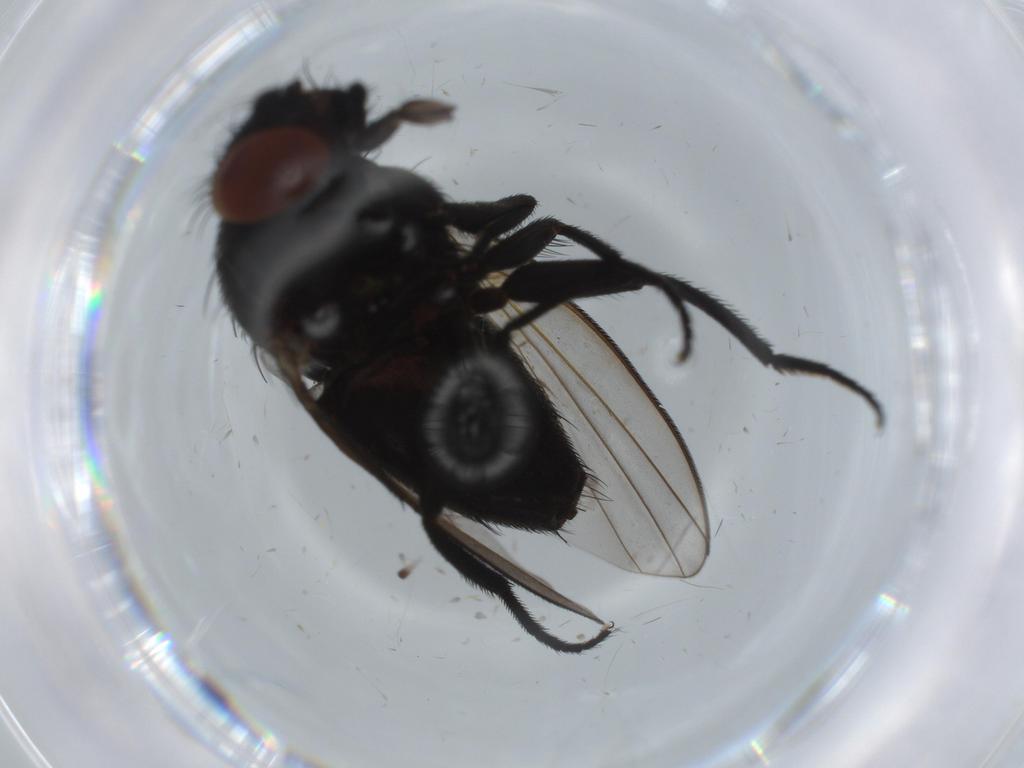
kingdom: Animalia
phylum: Arthropoda
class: Insecta
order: Diptera
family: Milichiidae
